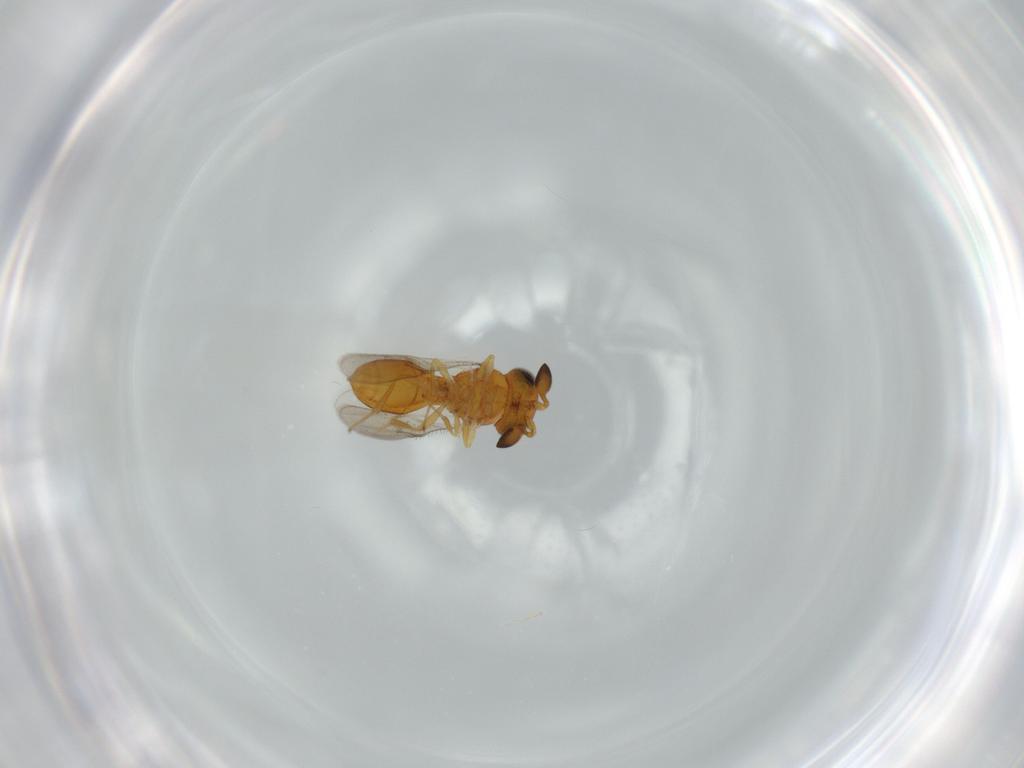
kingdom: Animalia
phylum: Arthropoda
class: Insecta
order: Hymenoptera
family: Scelionidae
